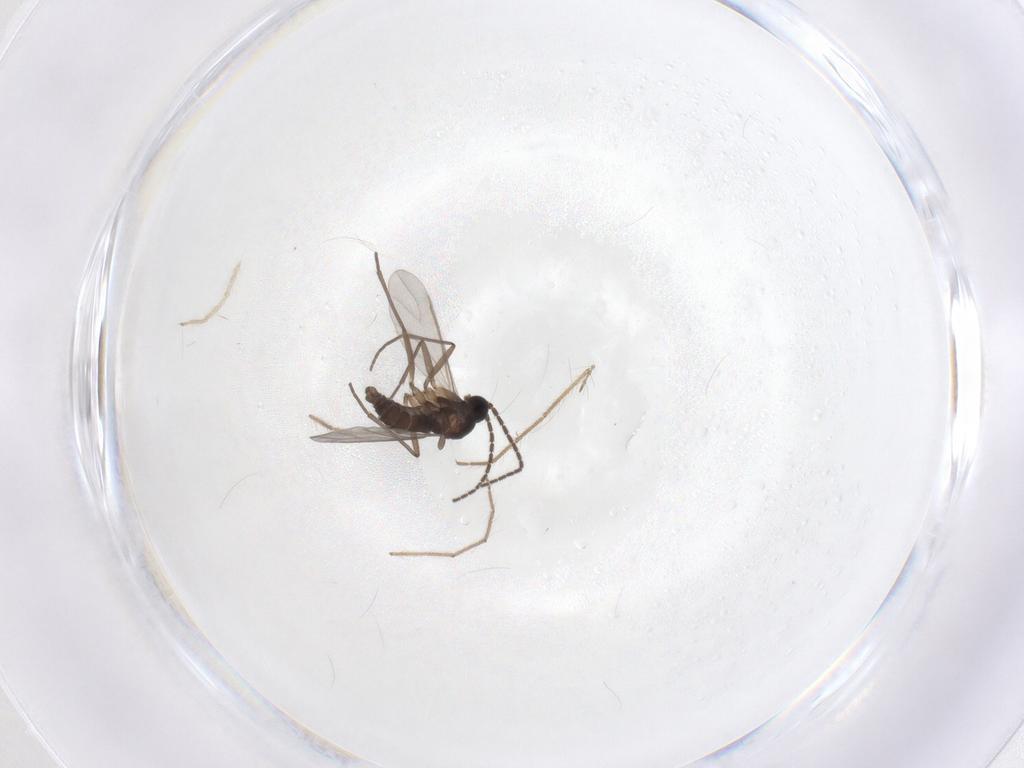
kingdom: Animalia
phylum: Arthropoda
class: Insecta
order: Diptera
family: Sciaridae
